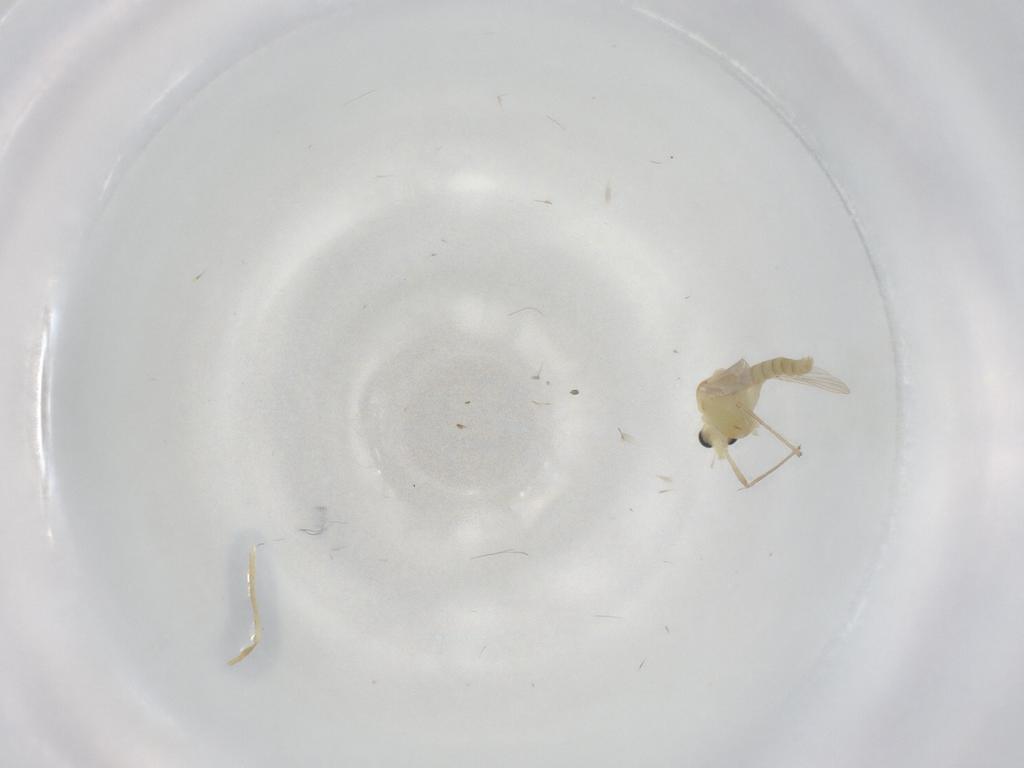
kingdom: Animalia
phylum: Arthropoda
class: Insecta
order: Diptera
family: Chironomidae
